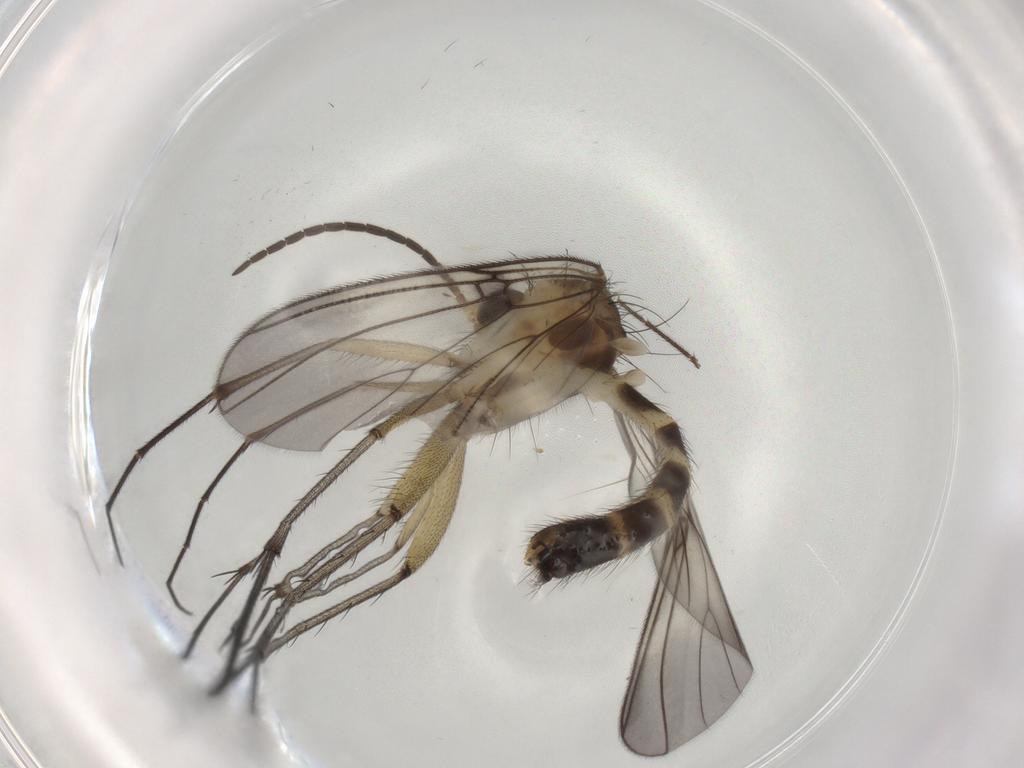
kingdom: Animalia
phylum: Arthropoda
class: Insecta
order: Diptera
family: Mycetophilidae
